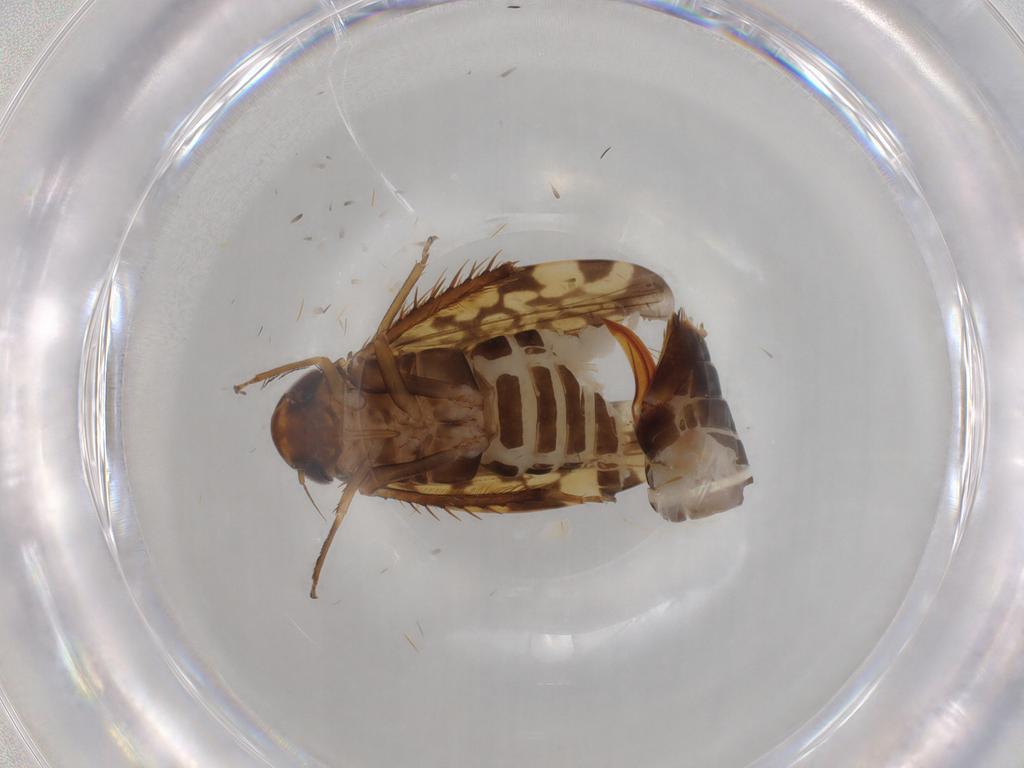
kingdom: Animalia
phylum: Arthropoda
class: Insecta
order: Hemiptera
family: Cicadellidae
